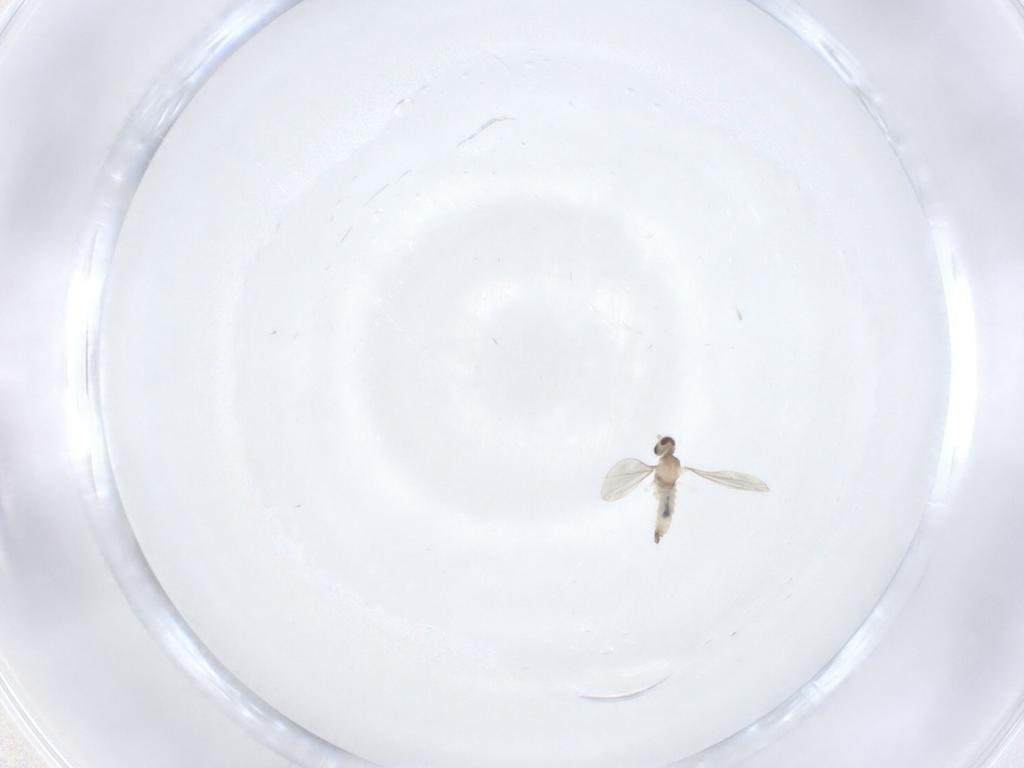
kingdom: Animalia
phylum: Arthropoda
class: Insecta
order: Diptera
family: Cecidomyiidae
